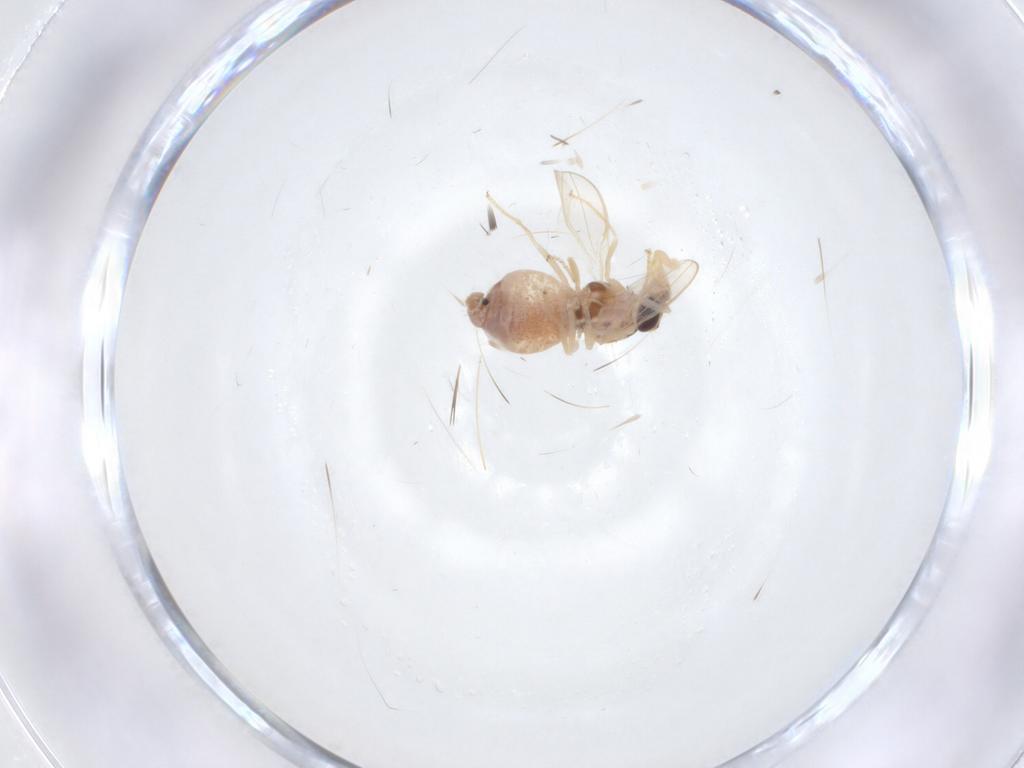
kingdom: Animalia
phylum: Arthropoda
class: Insecta
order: Diptera
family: Chloropidae
